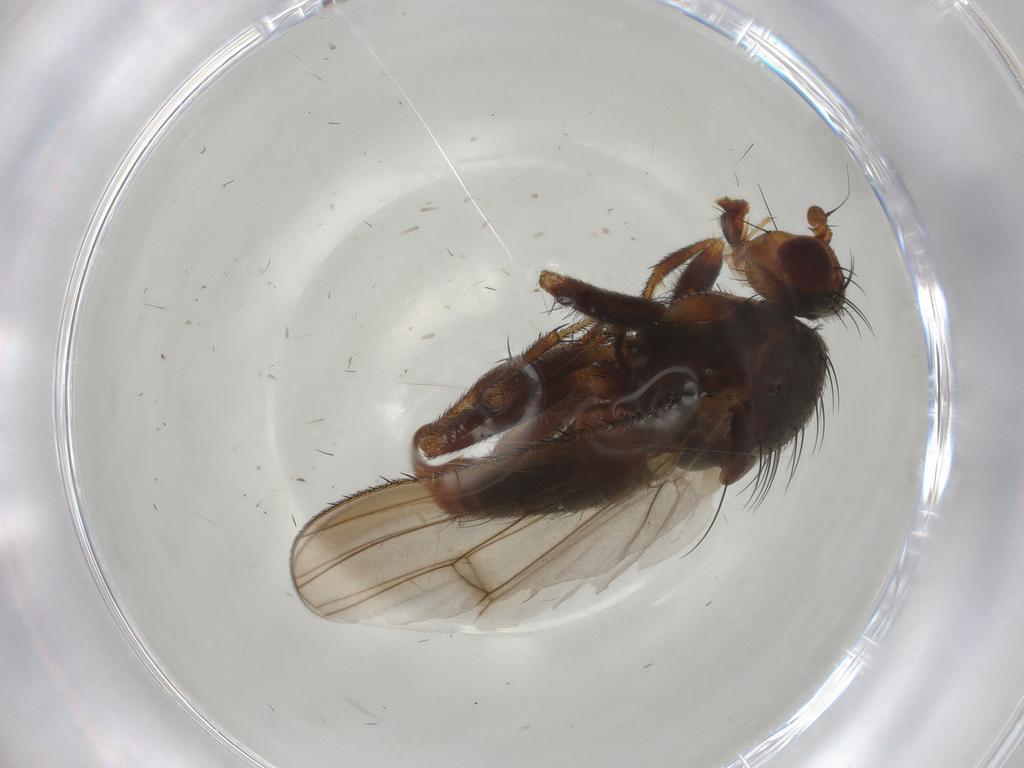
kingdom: Animalia
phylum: Arthropoda
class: Insecta
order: Diptera
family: Heleomyzidae
